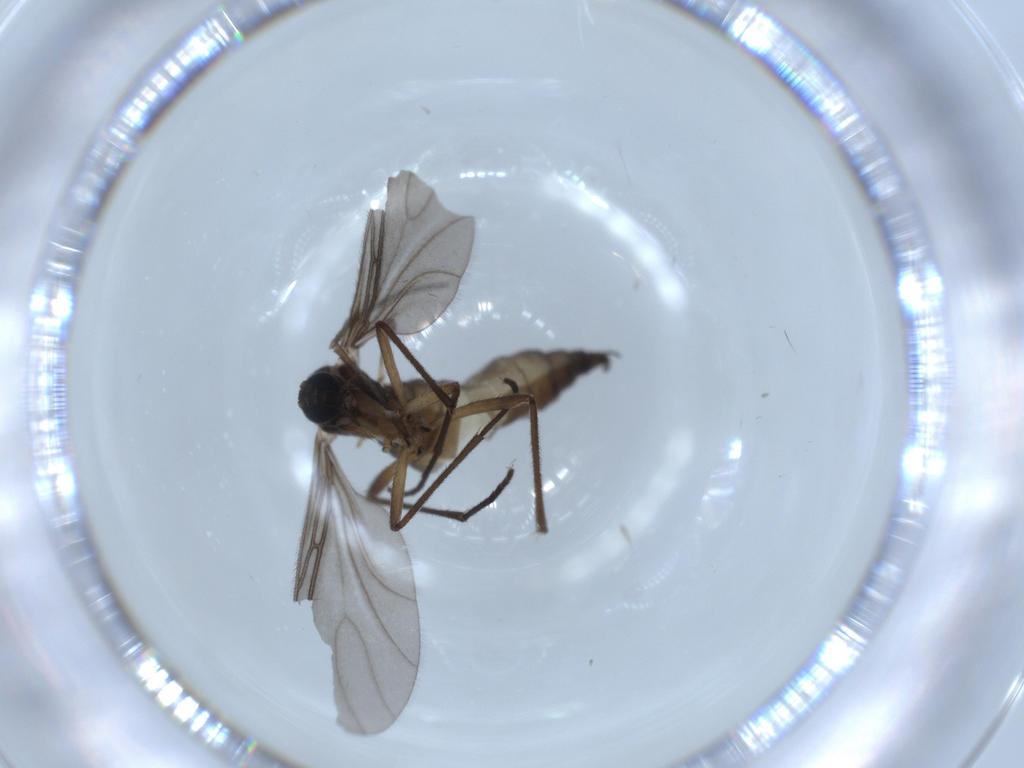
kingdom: Animalia
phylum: Arthropoda
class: Insecta
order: Diptera
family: Sciaridae
